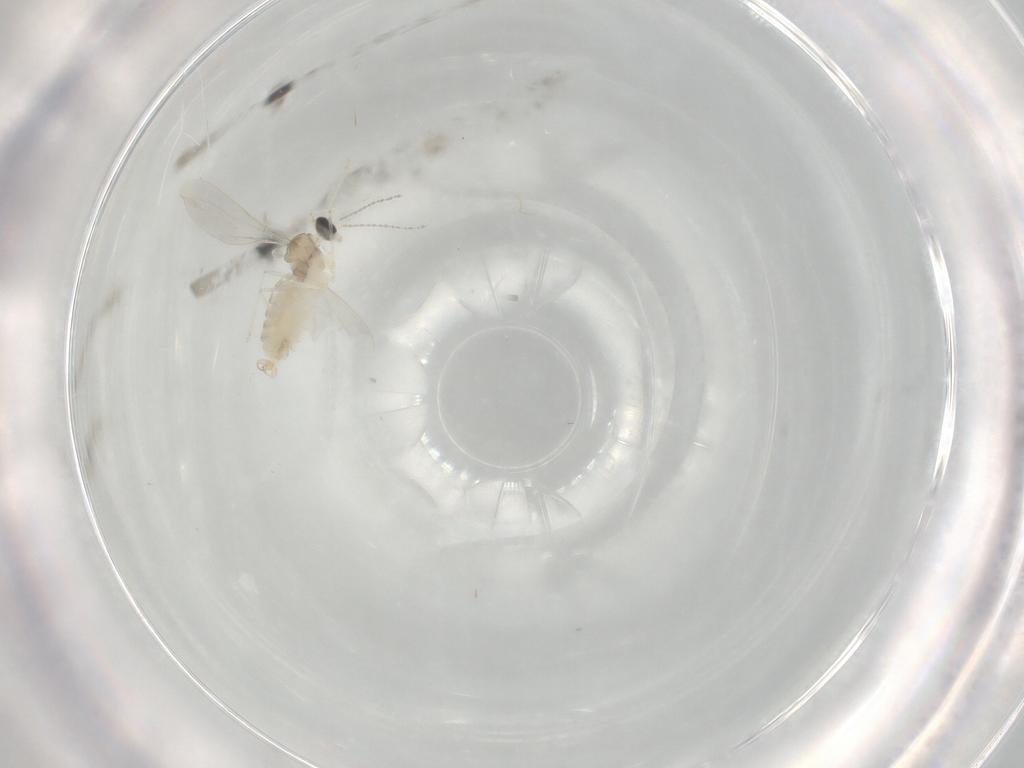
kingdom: Animalia
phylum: Arthropoda
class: Insecta
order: Diptera
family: Cecidomyiidae
